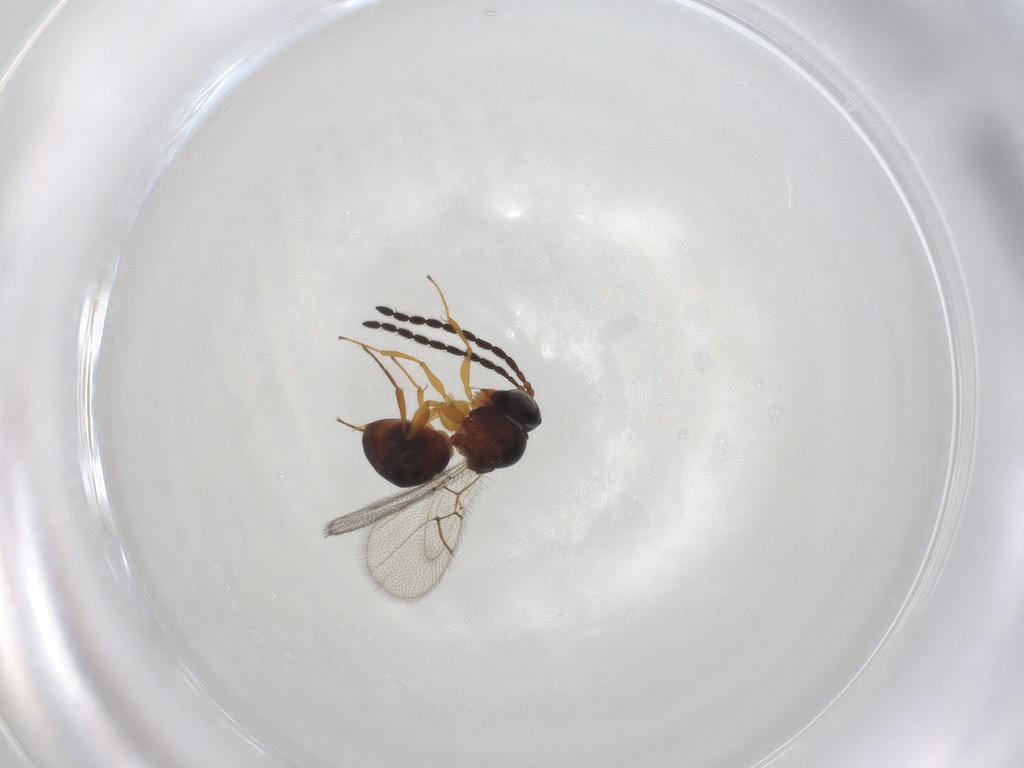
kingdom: Animalia
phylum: Arthropoda
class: Insecta
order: Hymenoptera
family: Figitidae
